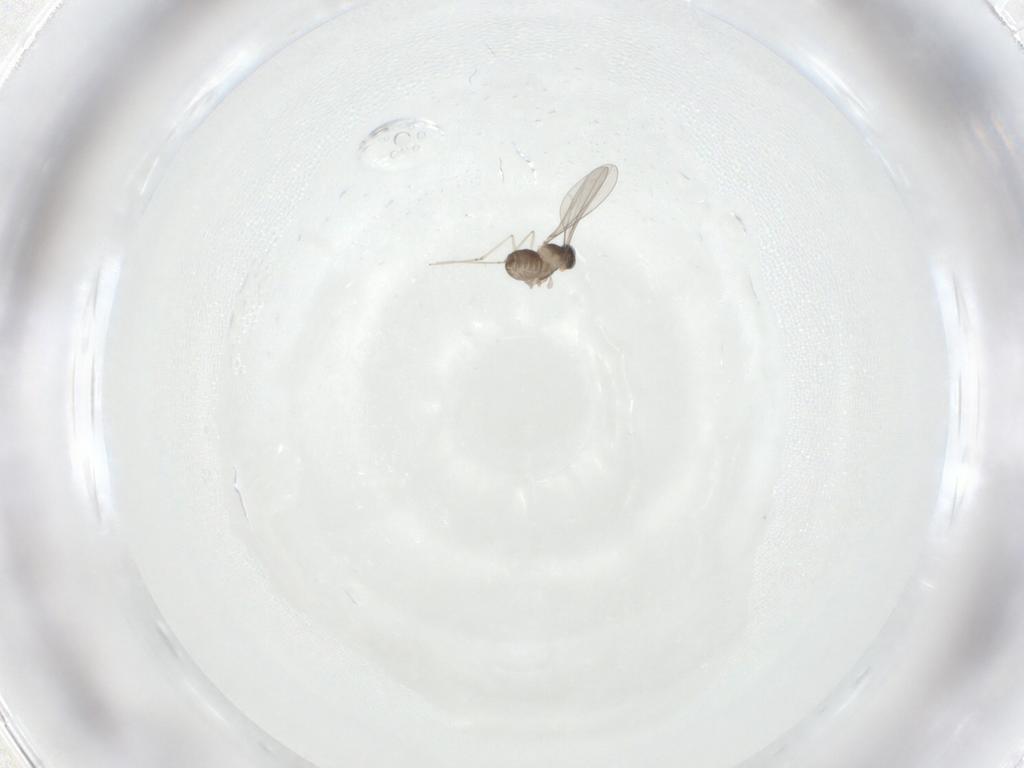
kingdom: Animalia
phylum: Arthropoda
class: Insecta
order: Diptera
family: Cecidomyiidae
